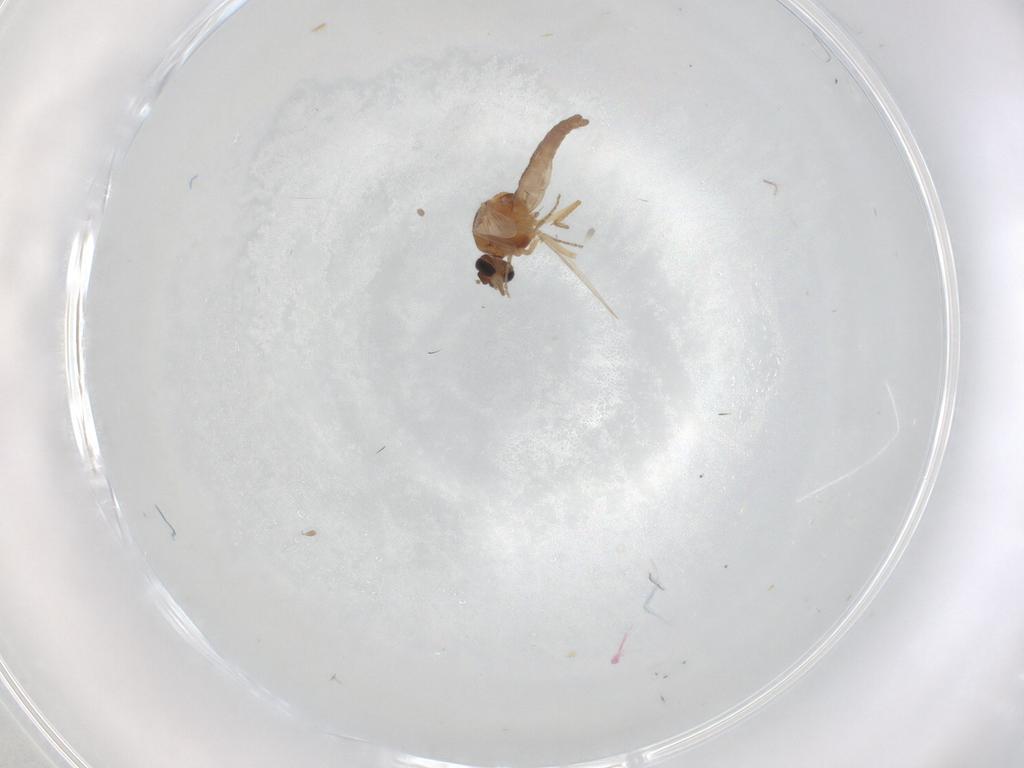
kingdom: Animalia
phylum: Arthropoda
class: Insecta
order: Diptera
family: Ceratopogonidae
